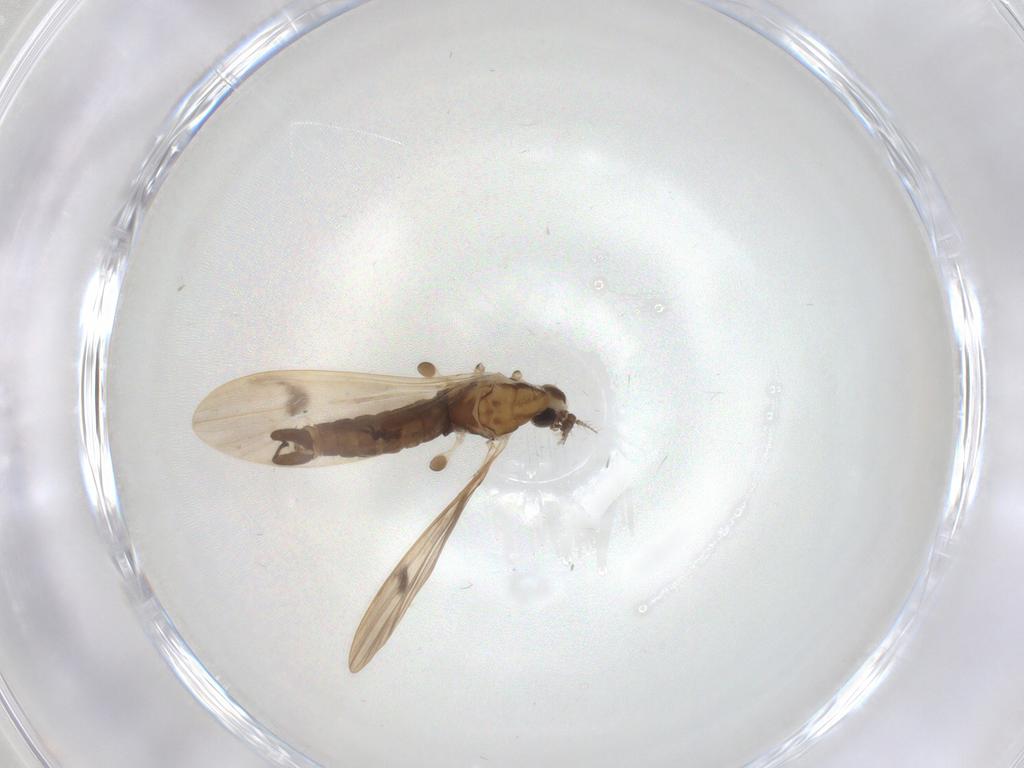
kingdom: Animalia
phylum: Arthropoda
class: Insecta
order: Diptera
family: Limoniidae
